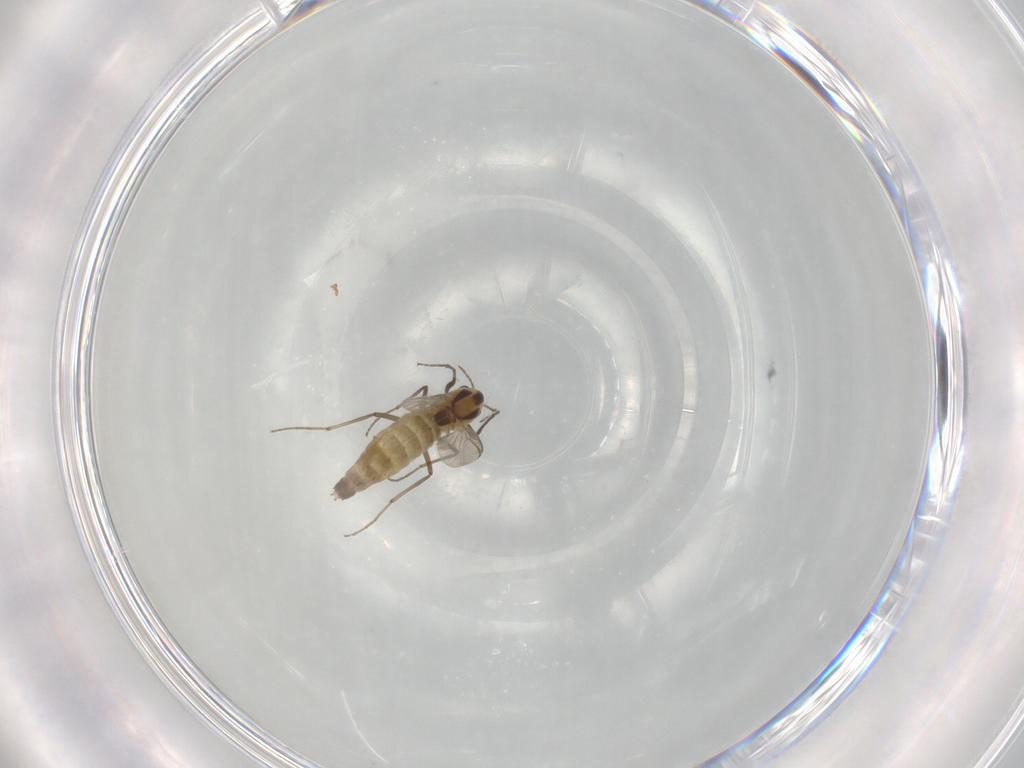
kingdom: Animalia
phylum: Arthropoda
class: Insecta
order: Diptera
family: Chironomidae
